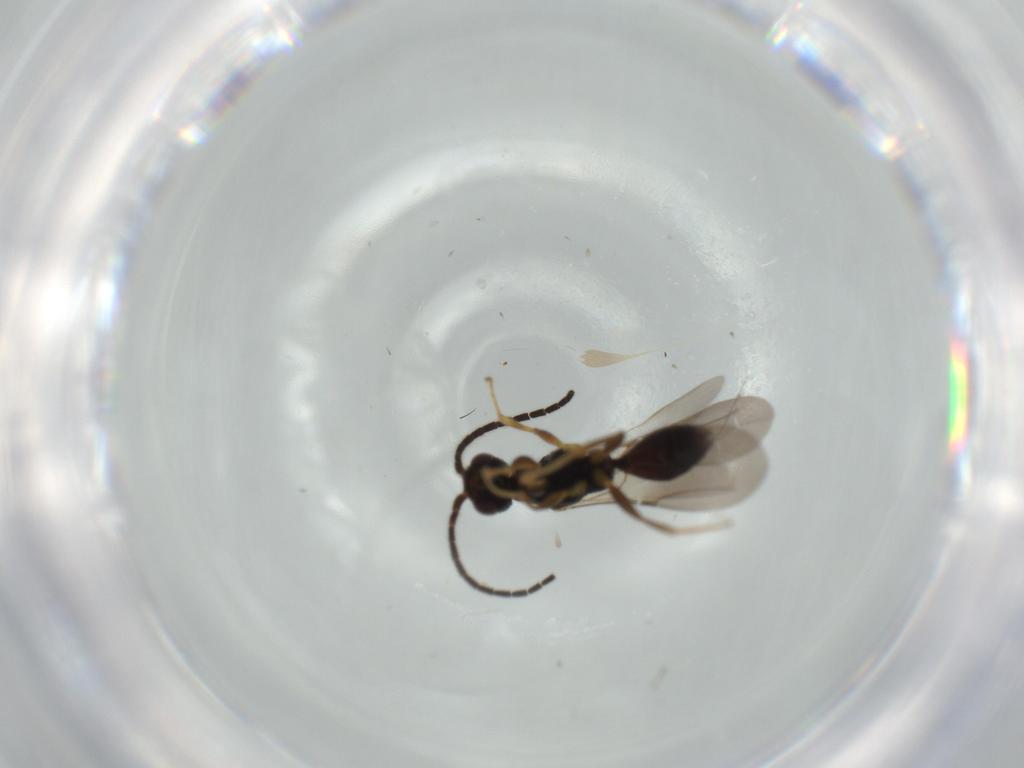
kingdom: Animalia
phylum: Arthropoda
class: Insecta
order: Hymenoptera
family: Bethylidae
